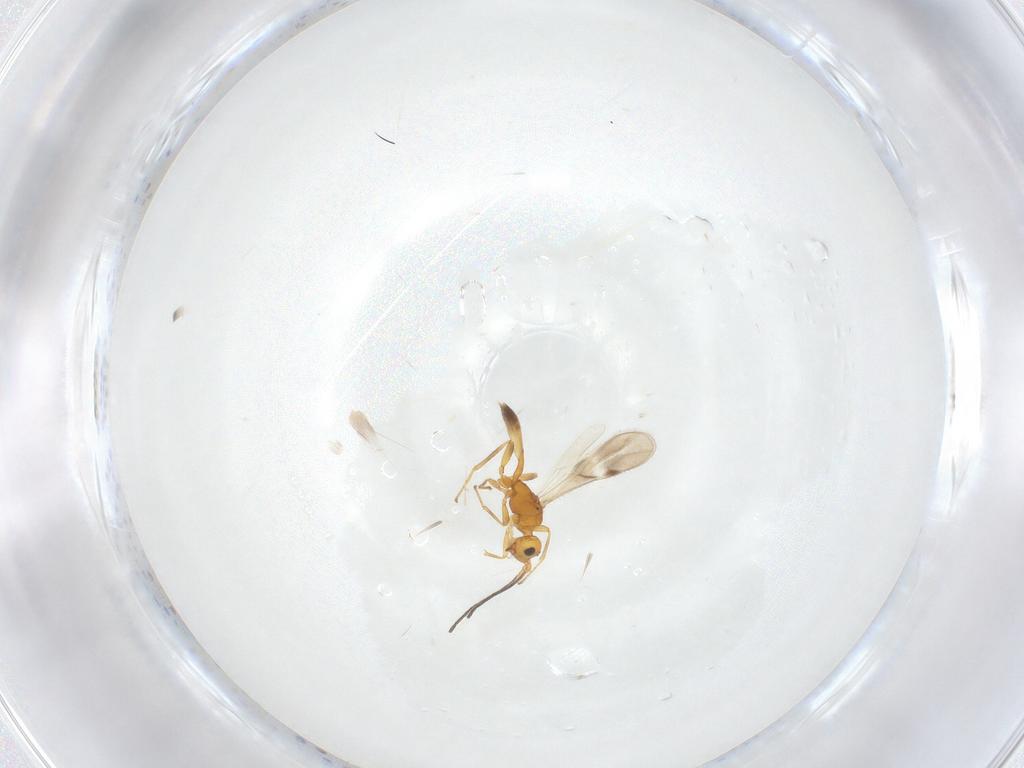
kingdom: Animalia
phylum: Arthropoda
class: Insecta
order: Hymenoptera
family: Braconidae
